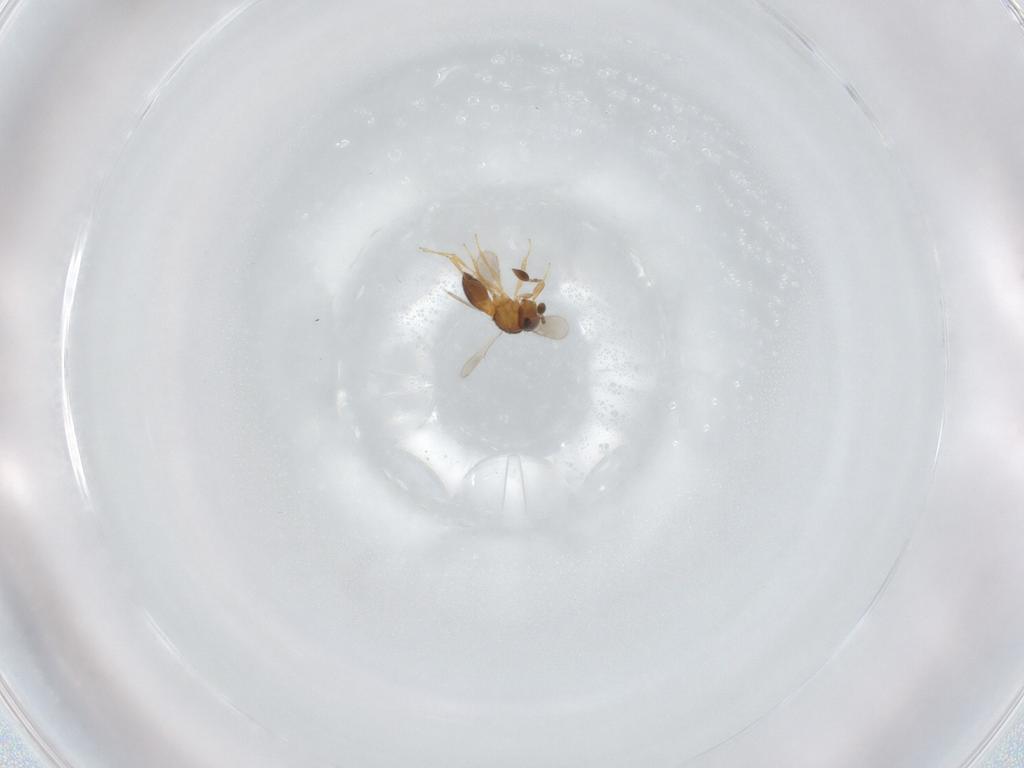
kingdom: Animalia
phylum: Arthropoda
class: Insecta
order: Hymenoptera
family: Scelionidae
